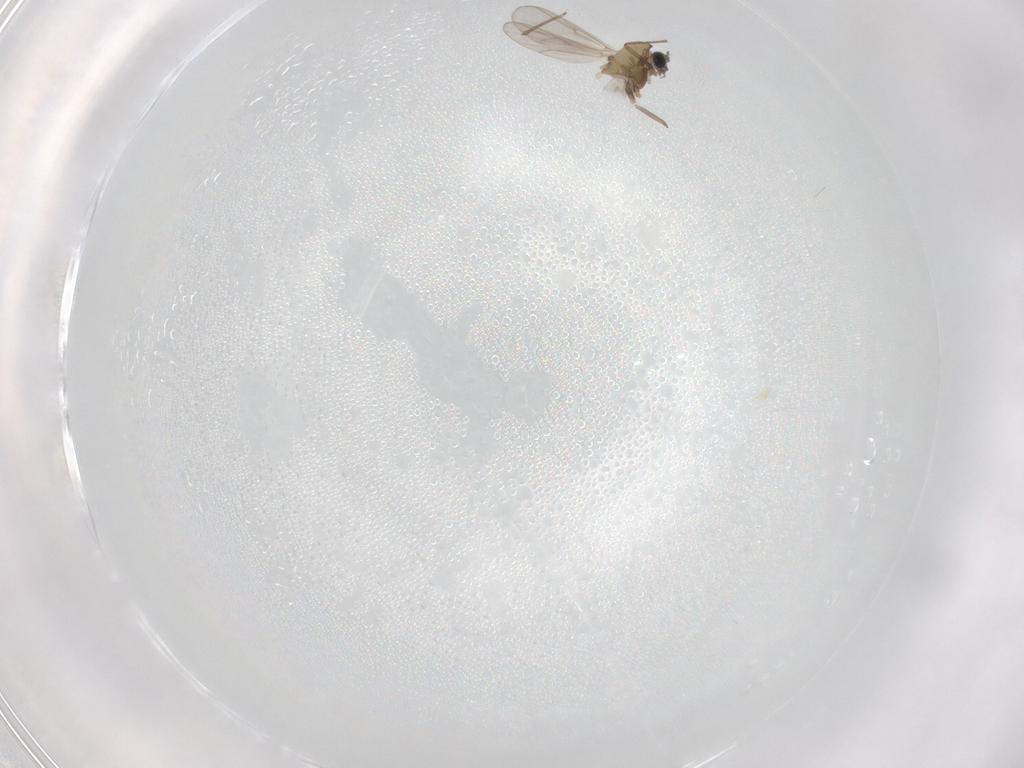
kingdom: Animalia
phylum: Arthropoda
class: Insecta
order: Diptera
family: Chironomidae
